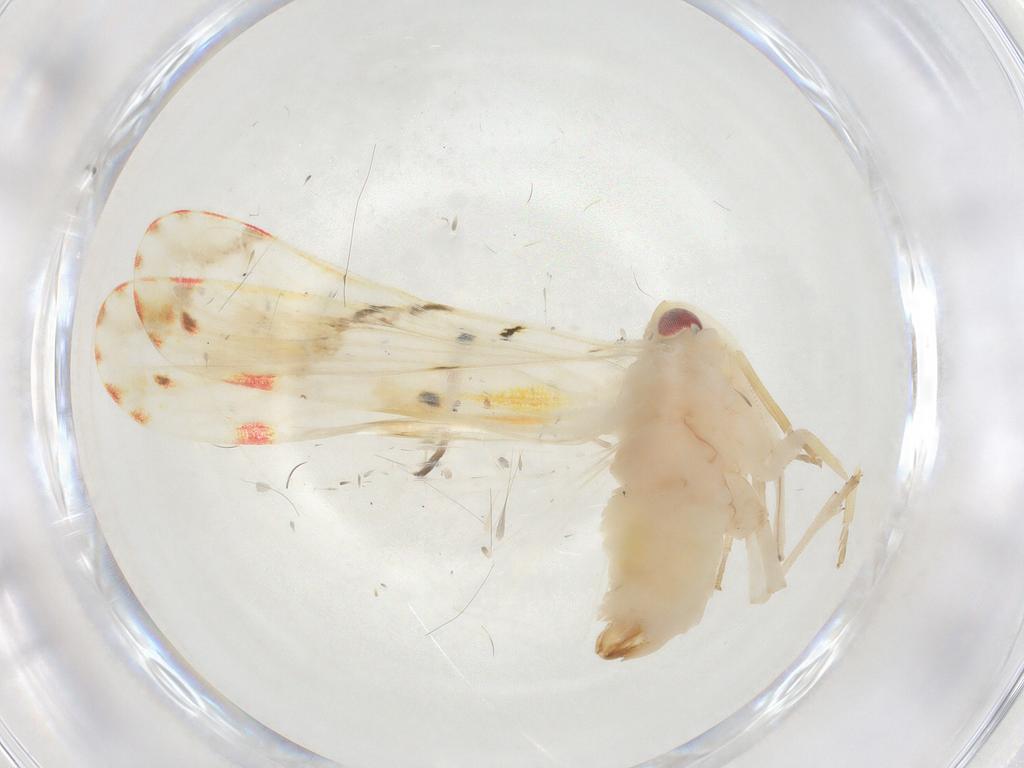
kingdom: Animalia
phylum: Arthropoda
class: Insecta
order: Hemiptera
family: Derbidae
